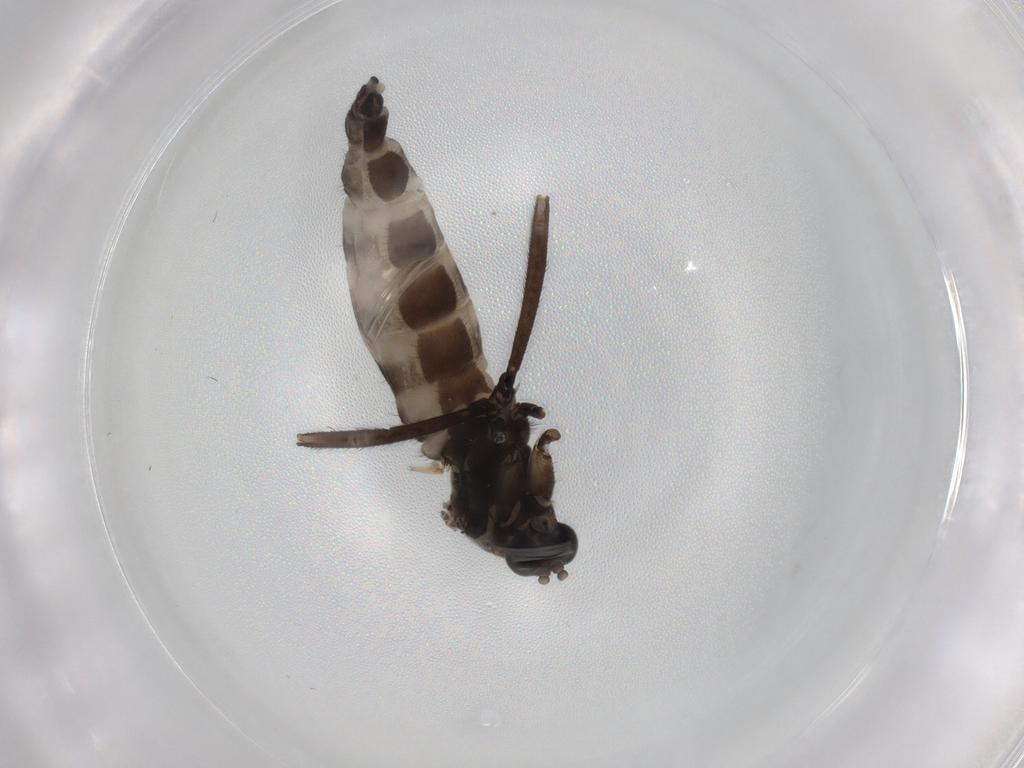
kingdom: Animalia
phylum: Arthropoda
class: Insecta
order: Diptera
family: Sciaridae
